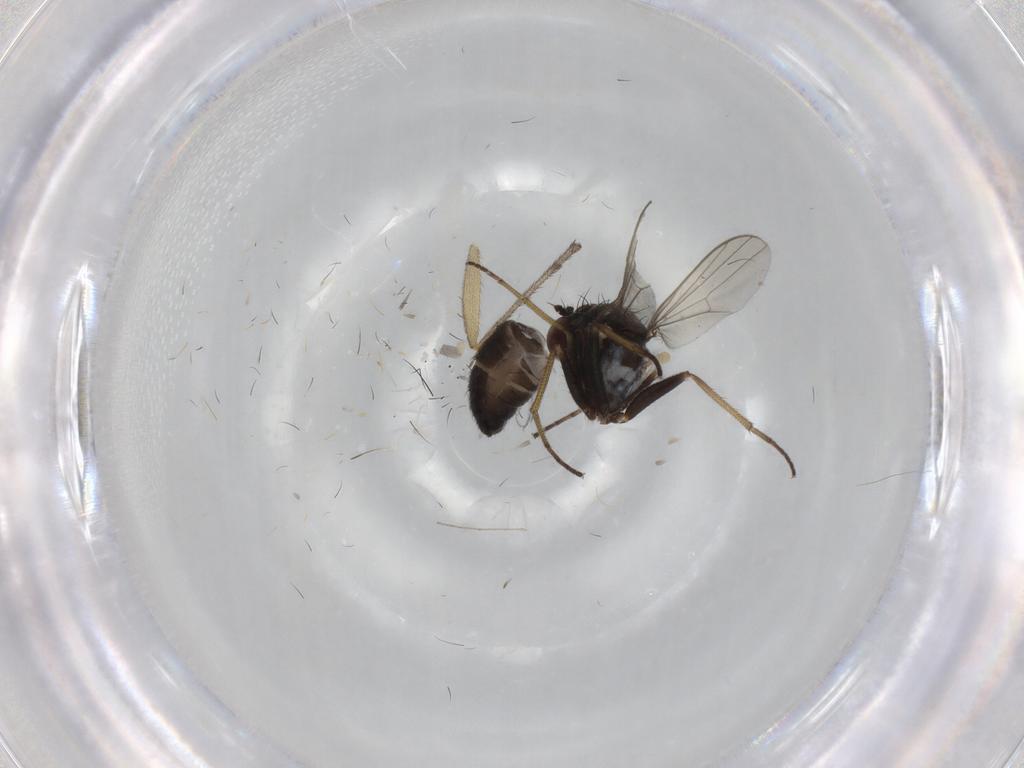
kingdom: Animalia
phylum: Arthropoda
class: Insecta
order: Diptera
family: Dolichopodidae
